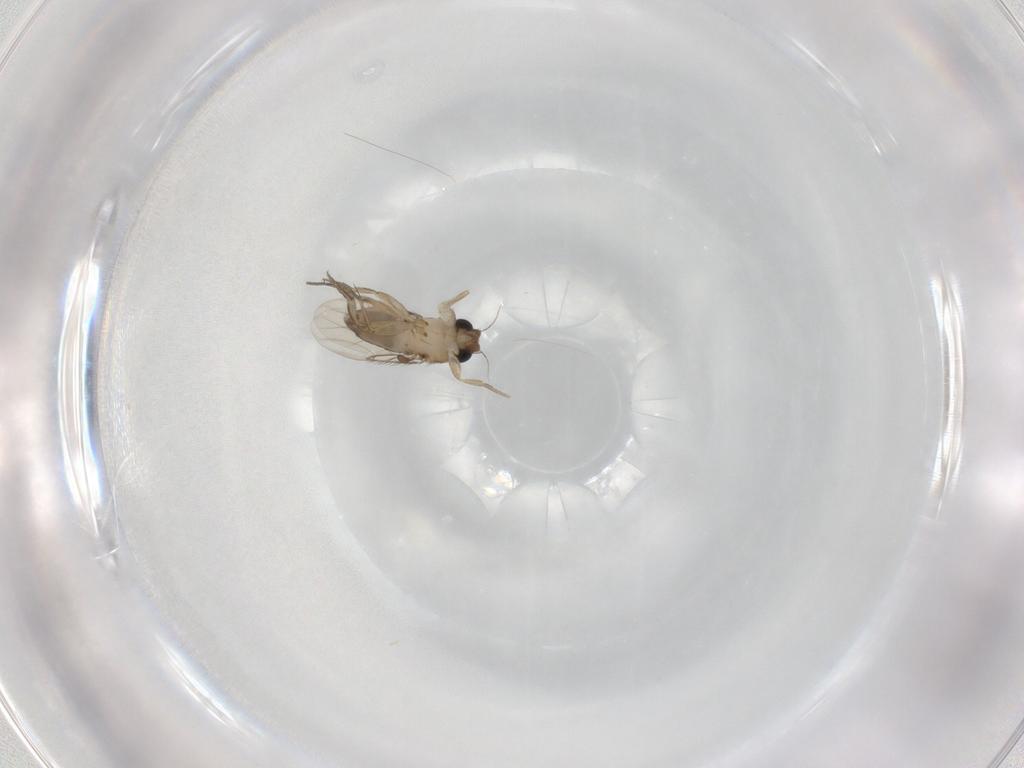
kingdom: Animalia
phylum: Arthropoda
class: Insecta
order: Diptera
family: Phoridae
